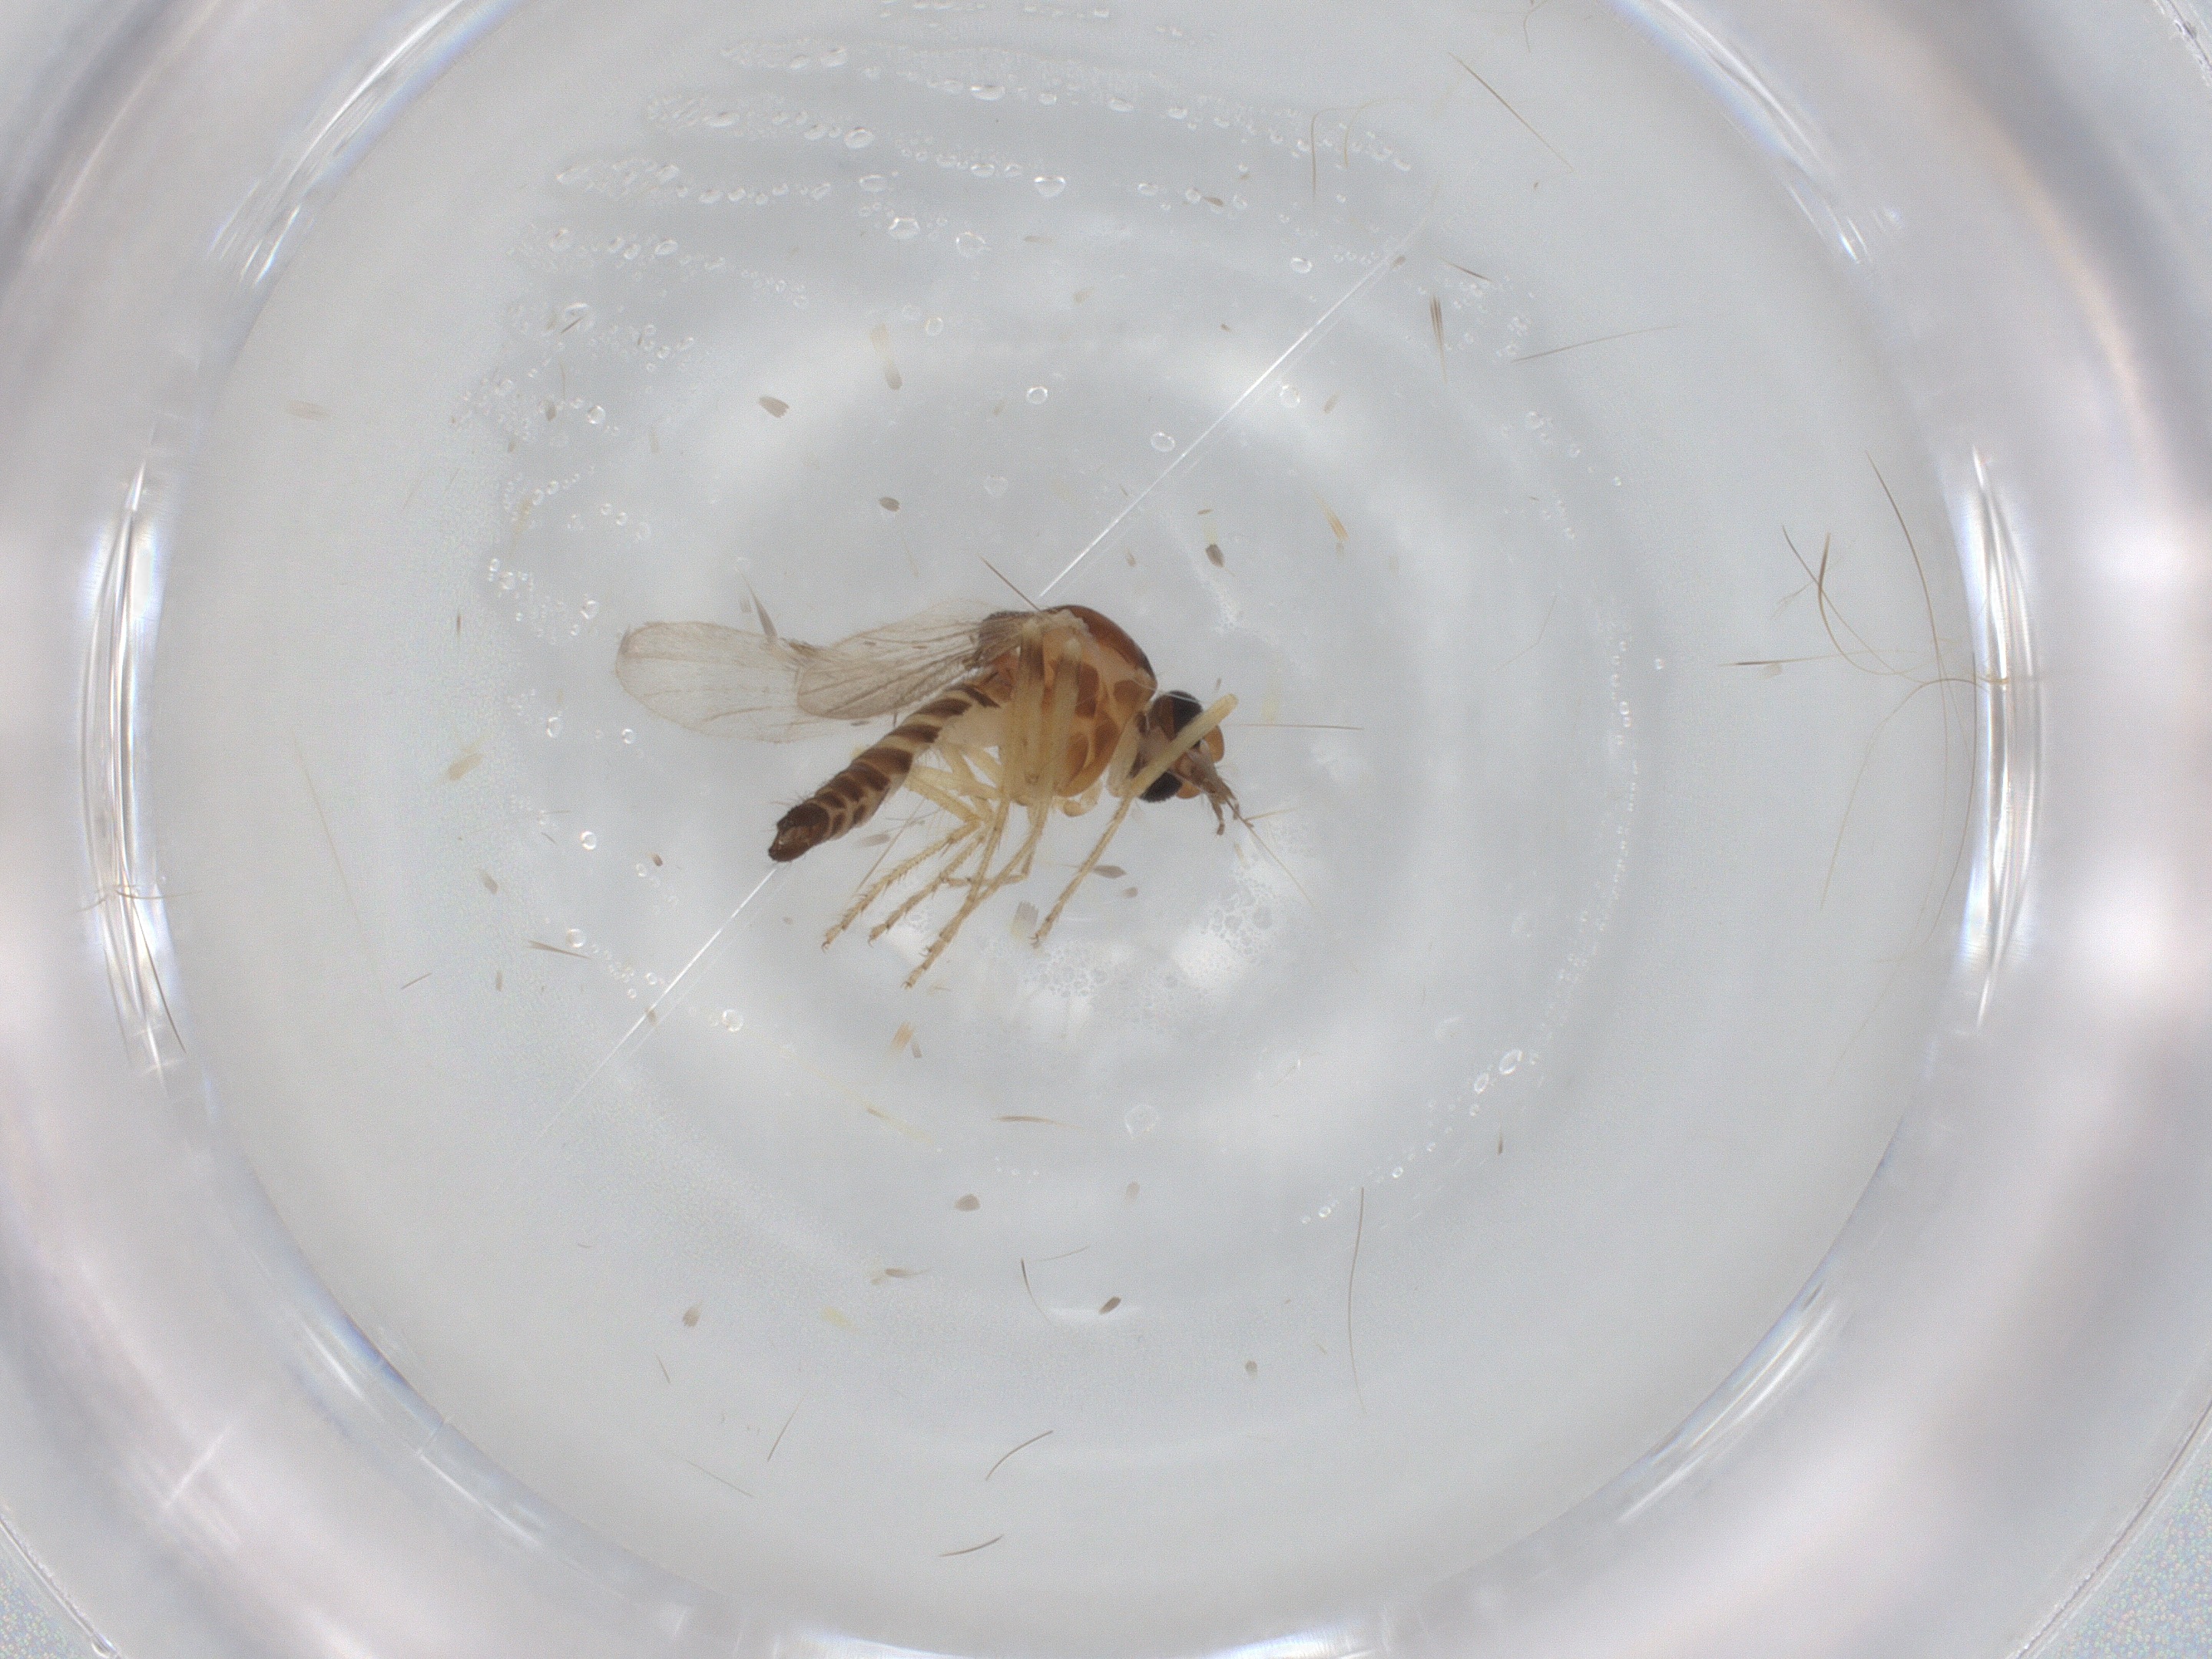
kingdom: Animalia
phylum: Arthropoda
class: Insecta
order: Diptera
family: Ceratopogonidae
